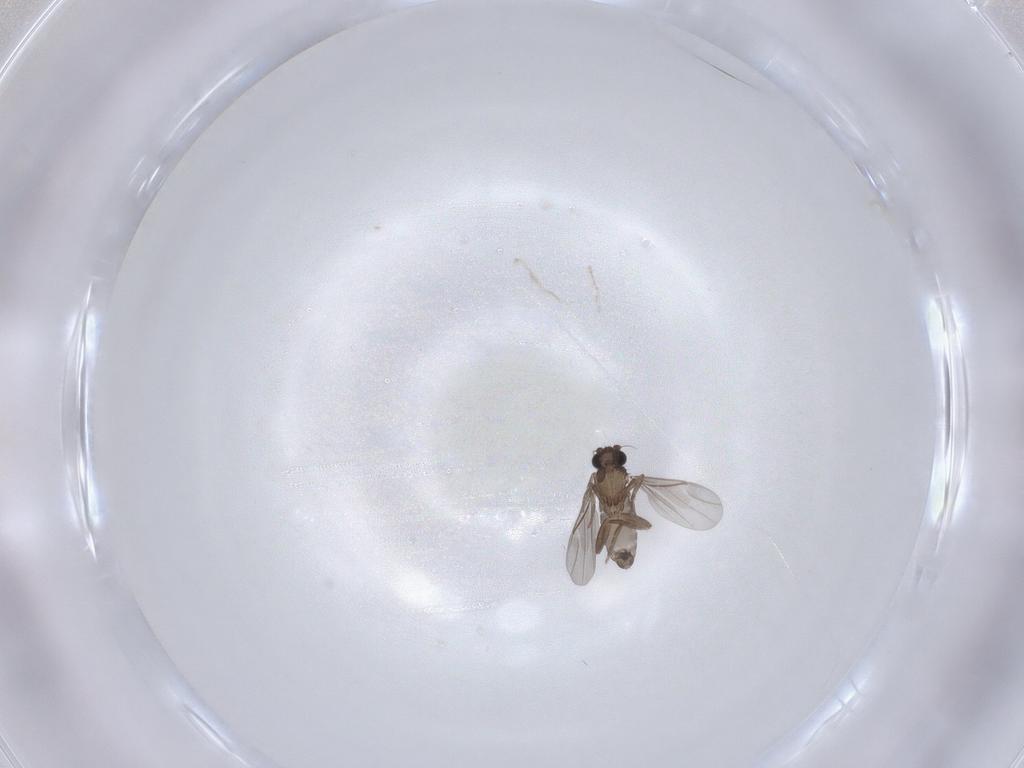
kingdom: Animalia
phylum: Arthropoda
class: Insecta
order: Diptera
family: Cecidomyiidae
